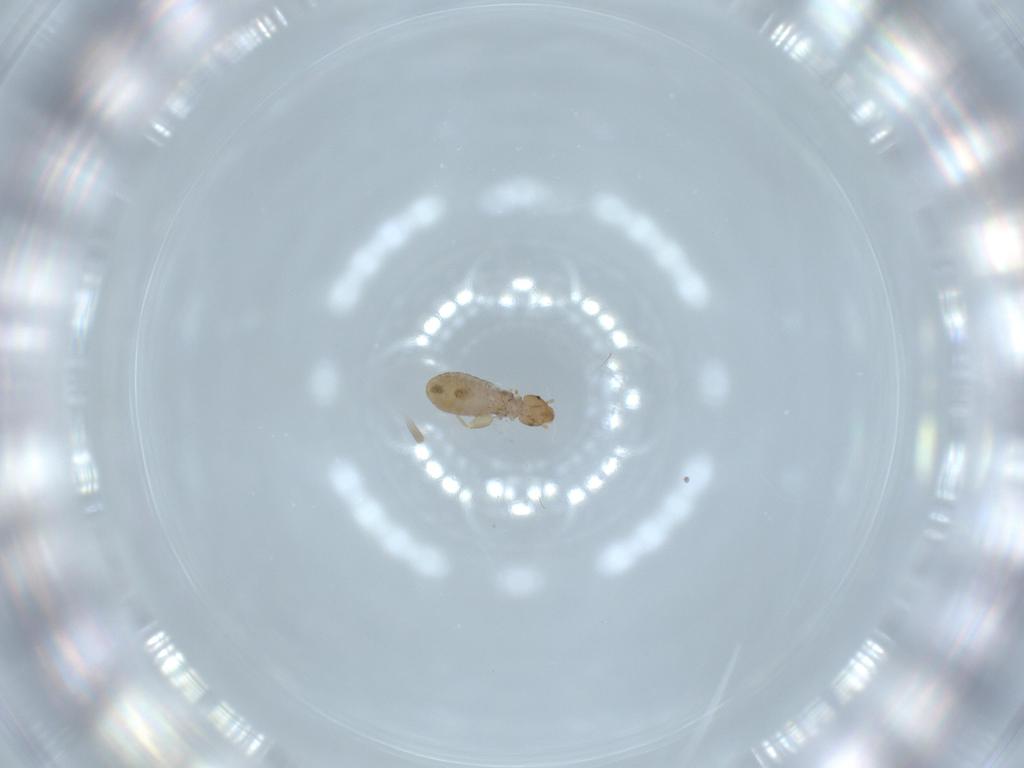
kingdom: Animalia
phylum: Arthropoda
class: Insecta
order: Psocodea
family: Liposcelididae
